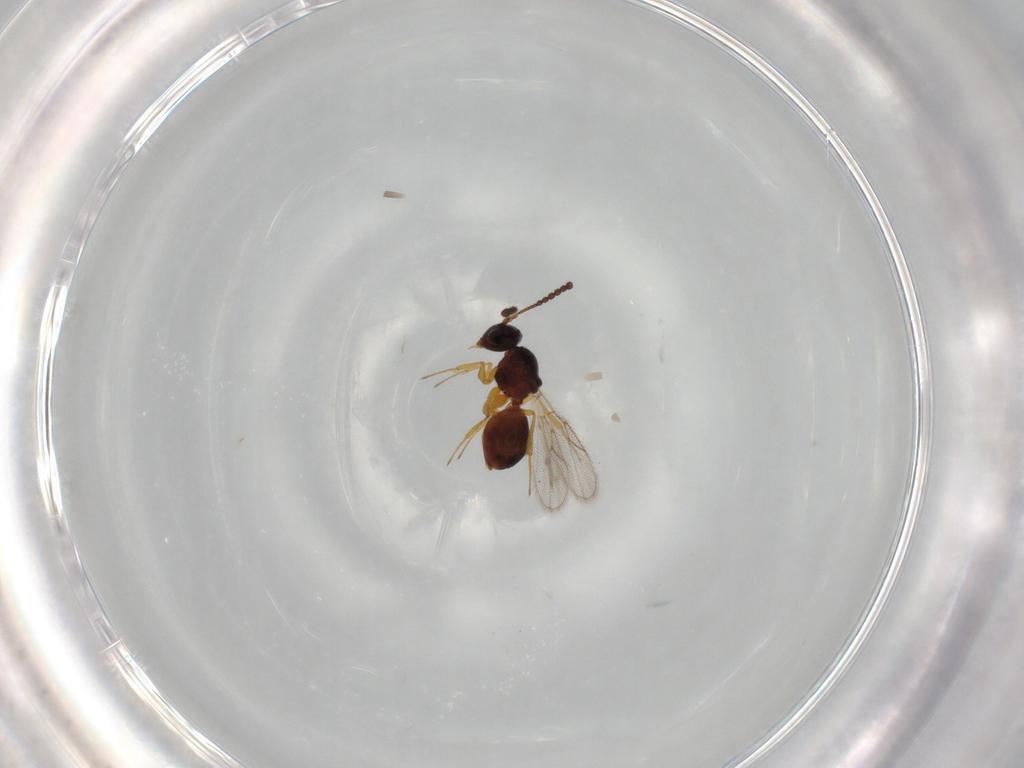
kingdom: Animalia
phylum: Arthropoda
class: Insecta
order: Hymenoptera
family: Figitidae
